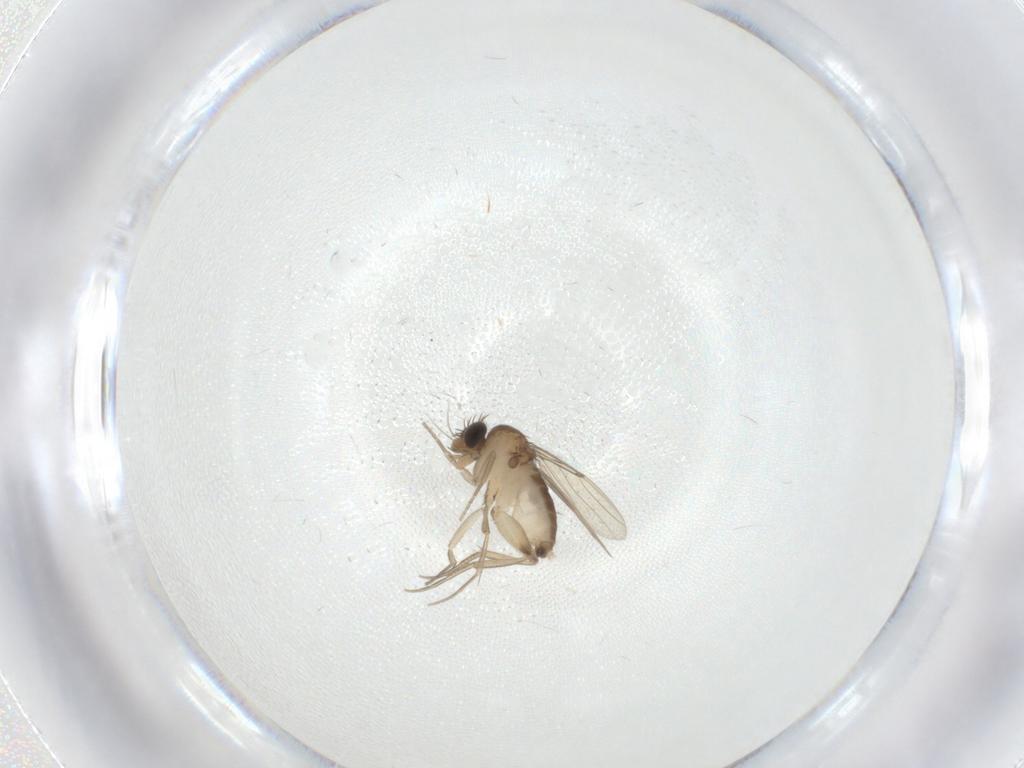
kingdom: Animalia
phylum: Arthropoda
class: Insecta
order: Diptera
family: Phoridae
